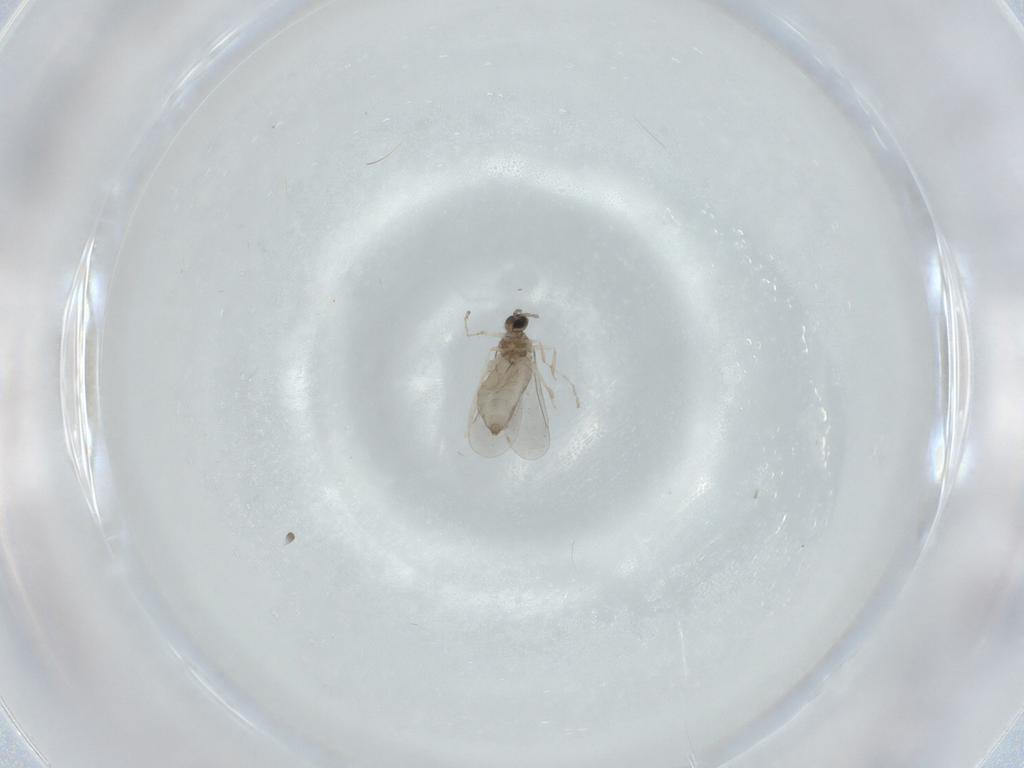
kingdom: Animalia
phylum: Arthropoda
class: Insecta
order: Diptera
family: Cecidomyiidae
